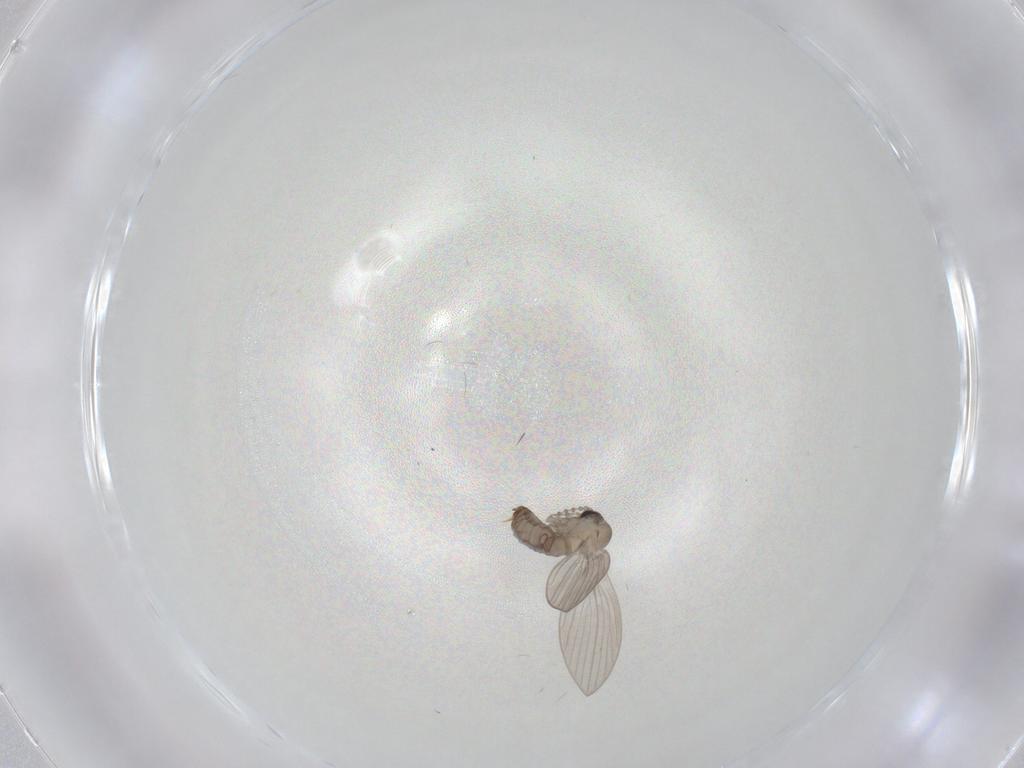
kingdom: Animalia
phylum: Arthropoda
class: Insecta
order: Diptera
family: Psychodidae
